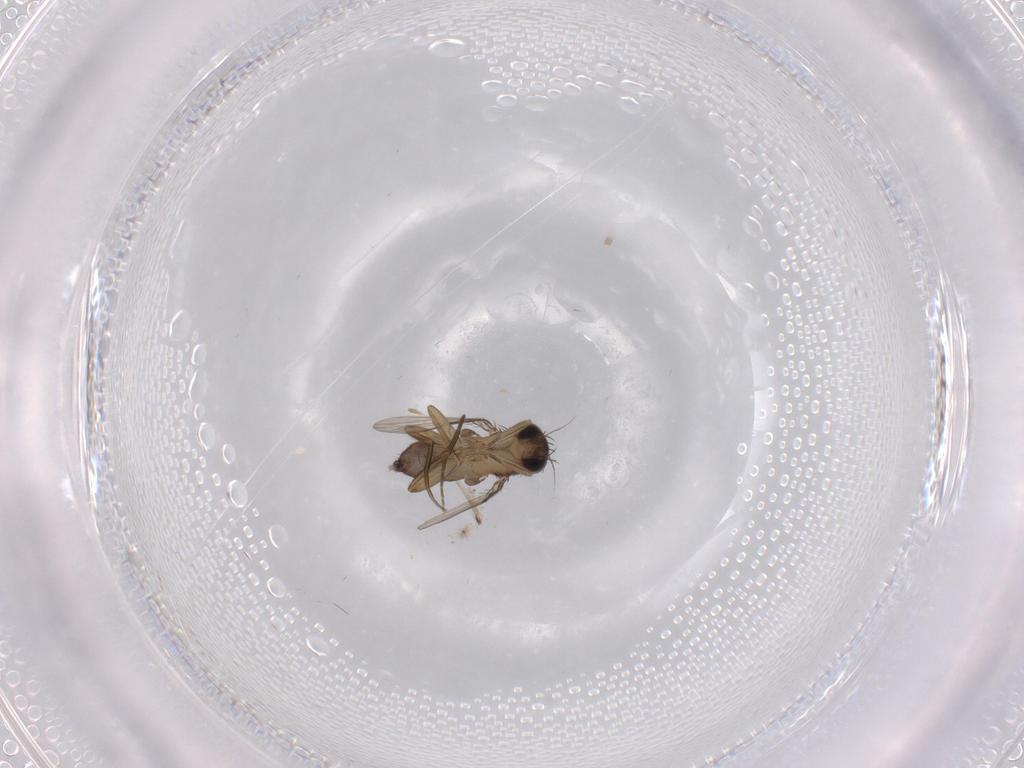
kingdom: Animalia
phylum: Arthropoda
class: Insecta
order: Diptera
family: Phoridae
